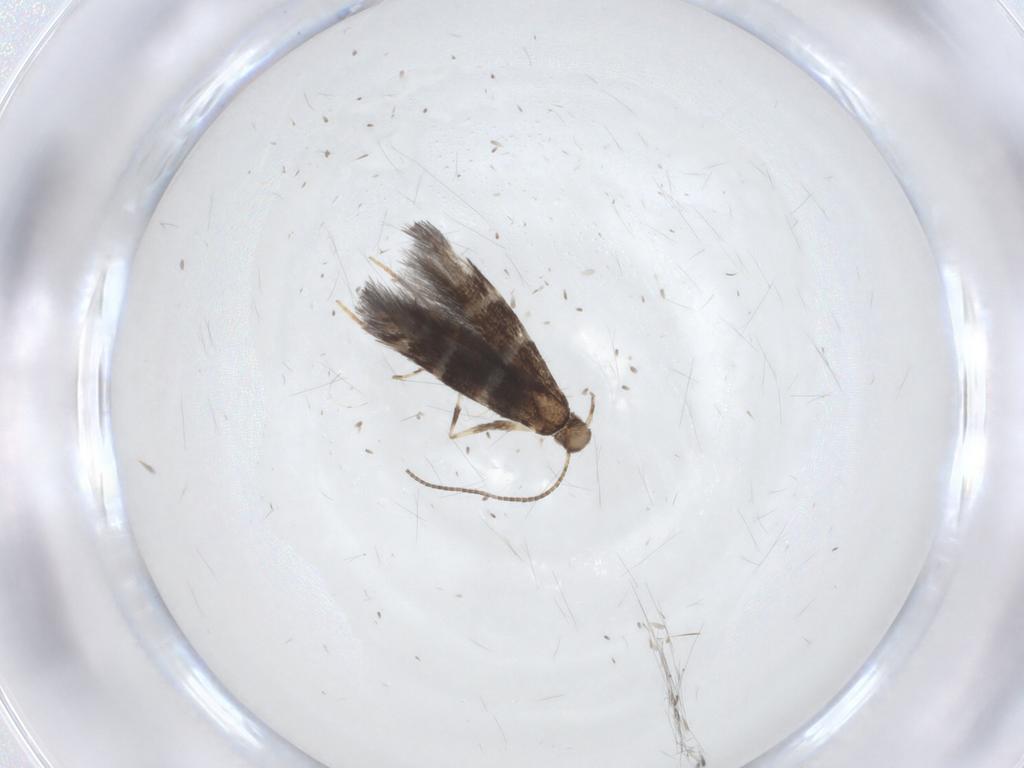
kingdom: Animalia
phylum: Arthropoda
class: Insecta
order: Lepidoptera
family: Gracillariidae
